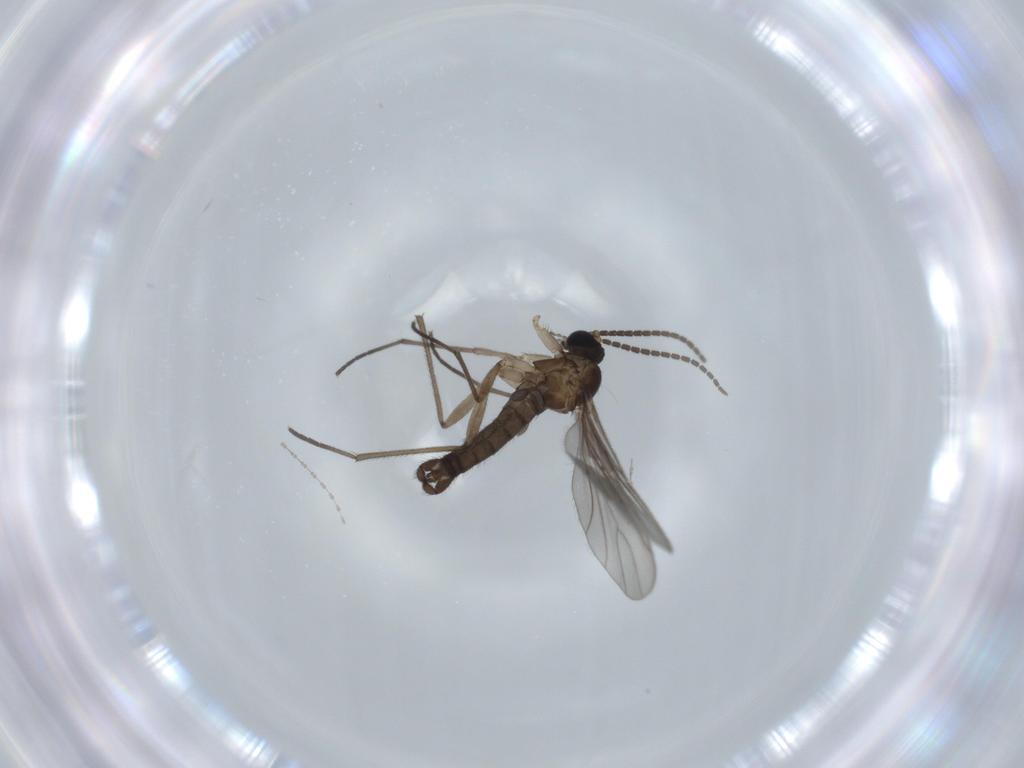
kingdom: Animalia
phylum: Arthropoda
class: Insecta
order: Diptera
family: Sciaridae
